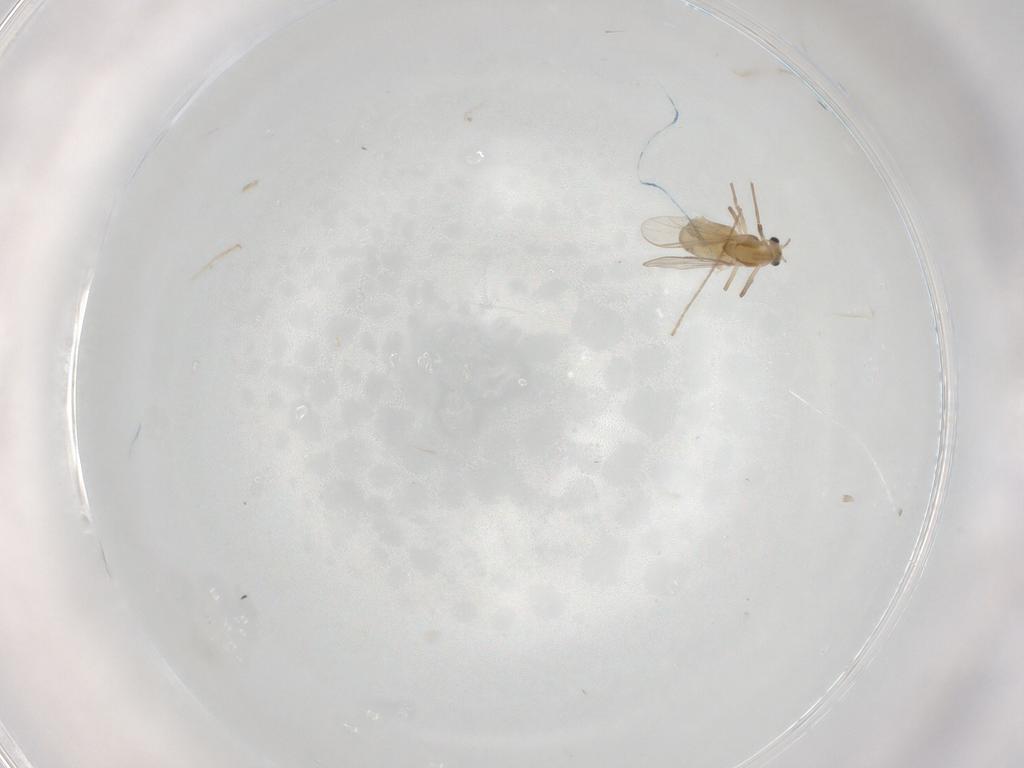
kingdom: Animalia
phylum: Arthropoda
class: Insecta
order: Diptera
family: Chironomidae
